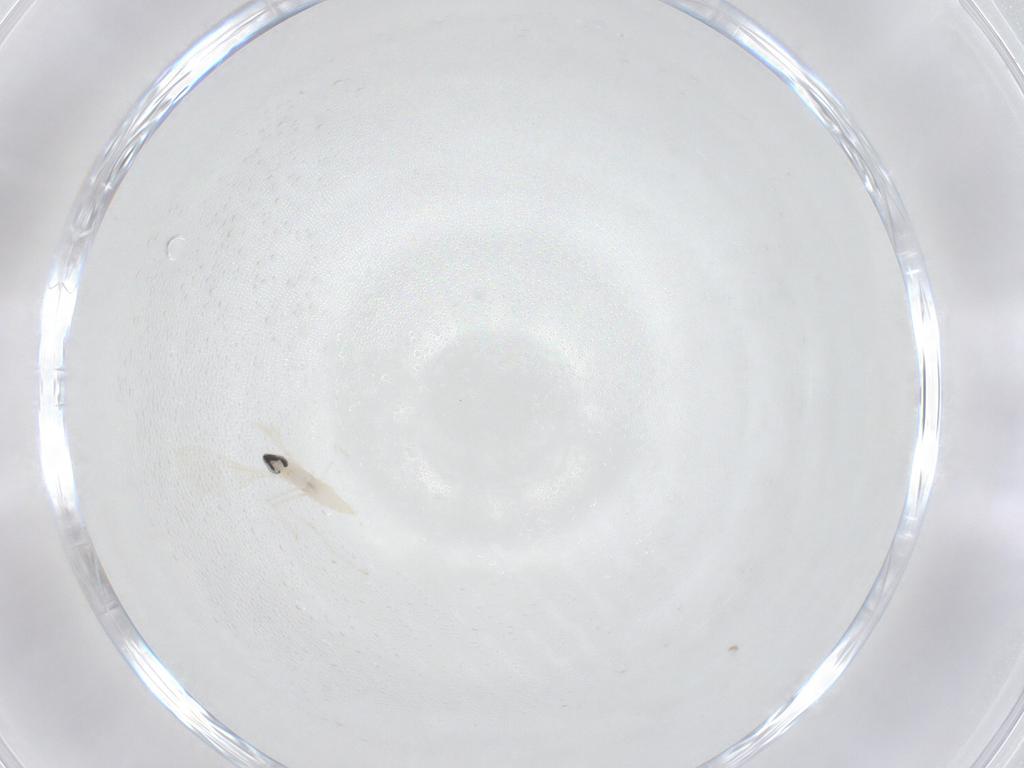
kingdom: Animalia
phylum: Arthropoda
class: Insecta
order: Diptera
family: Cecidomyiidae
